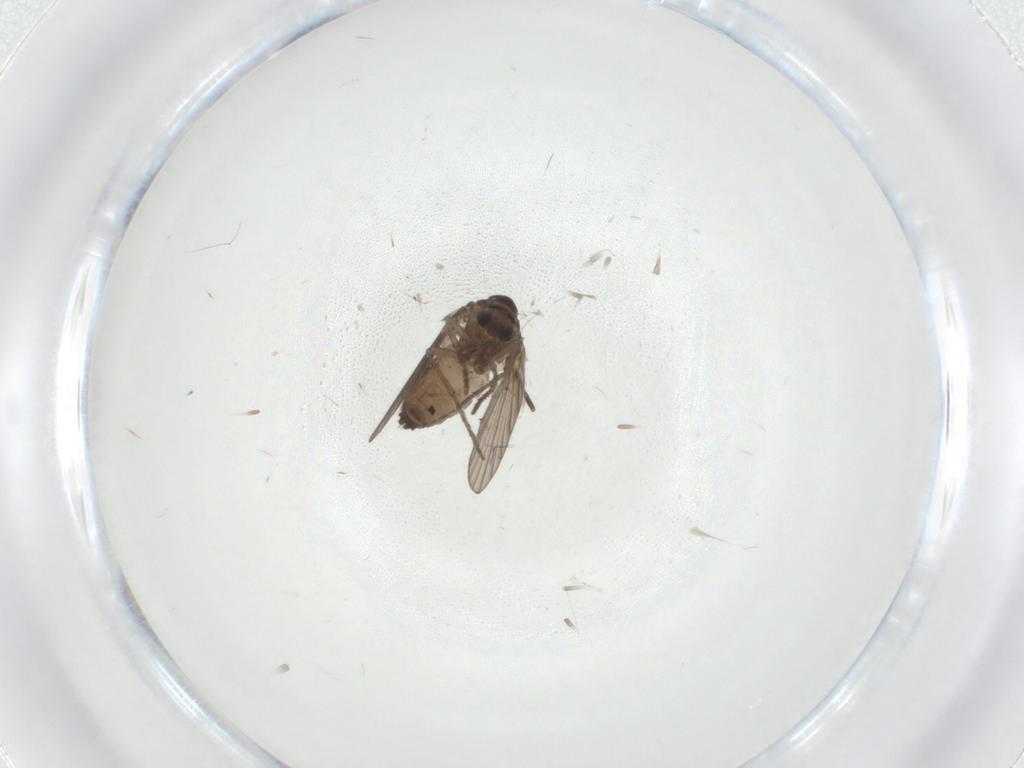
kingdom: Animalia
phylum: Arthropoda
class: Insecta
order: Diptera
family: Psychodidae
